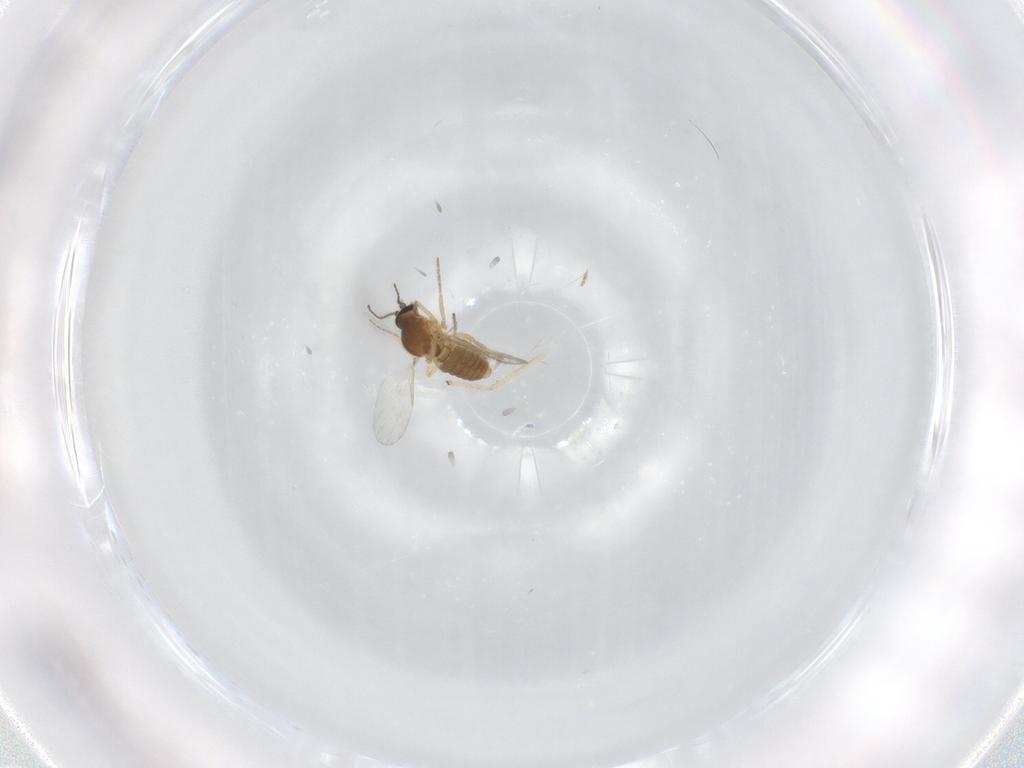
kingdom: Animalia
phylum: Arthropoda
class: Insecta
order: Diptera
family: Ceratopogonidae
